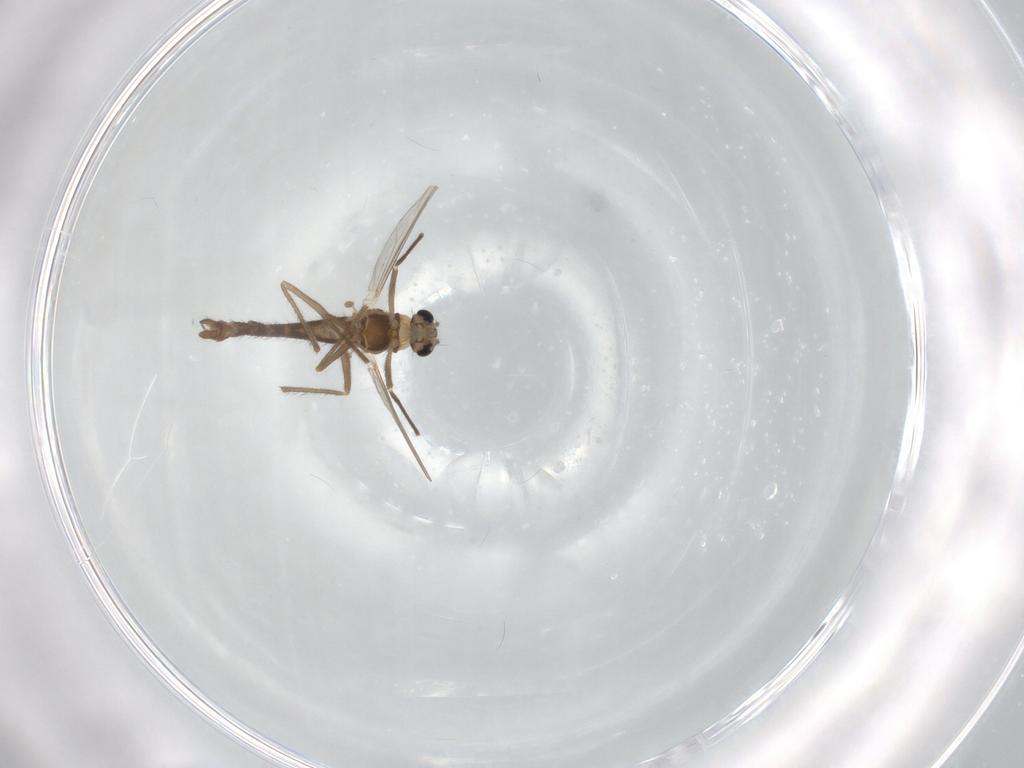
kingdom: Animalia
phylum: Arthropoda
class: Insecta
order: Diptera
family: Chironomidae
